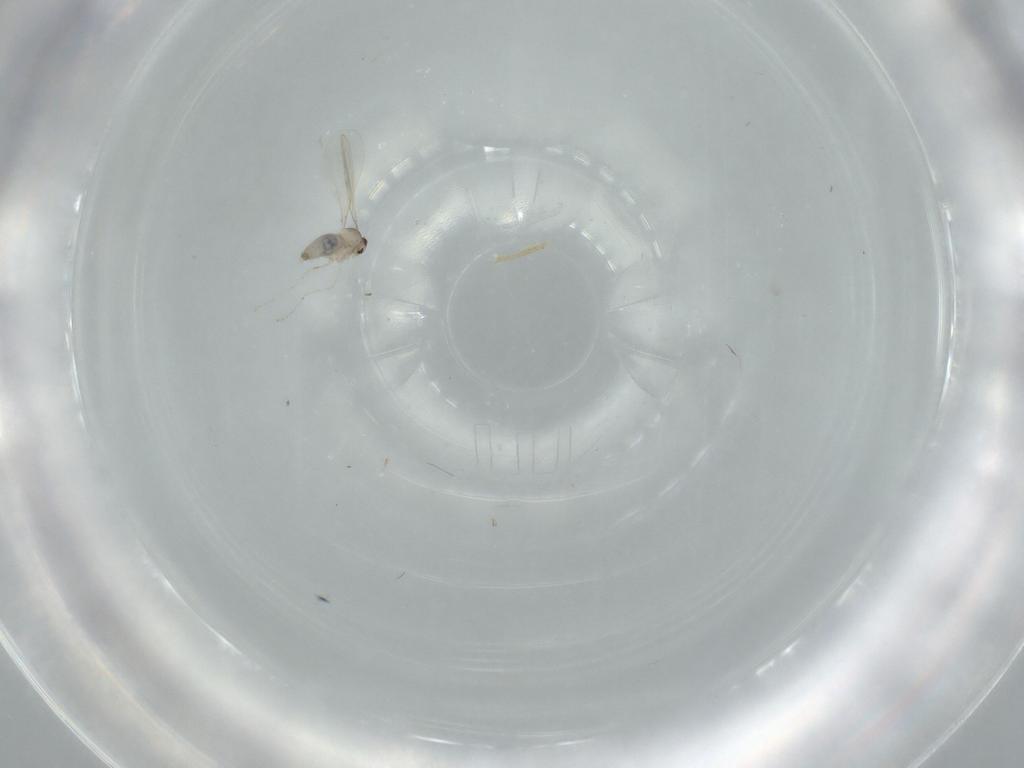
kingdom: Animalia
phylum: Arthropoda
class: Insecta
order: Diptera
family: Cecidomyiidae
